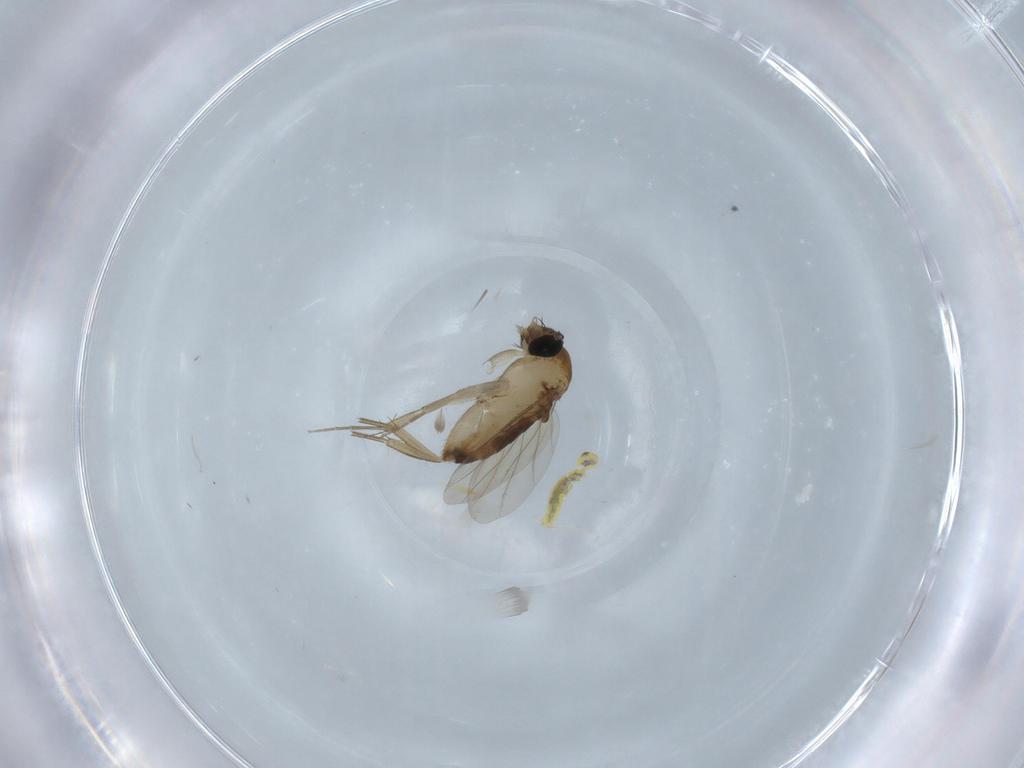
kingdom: Animalia
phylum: Arthropoda
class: Insecta
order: Diptera
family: Phoridae
